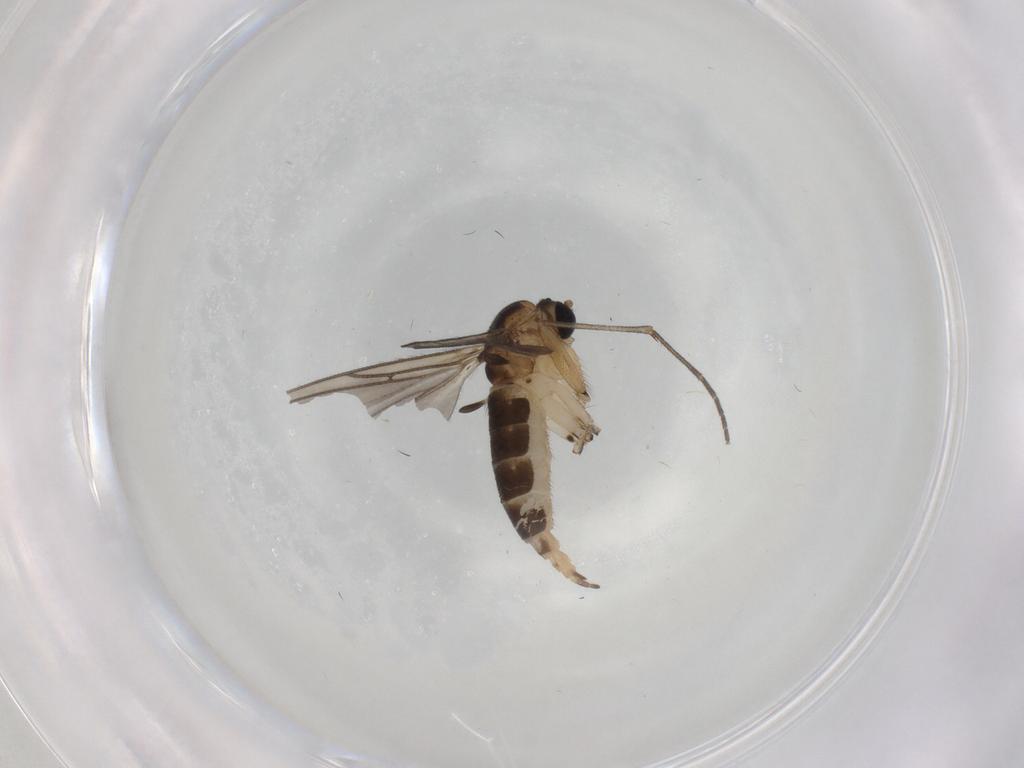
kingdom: Animalia
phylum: Arthropoda
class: Insecta
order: Diptera
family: Sciaridae
